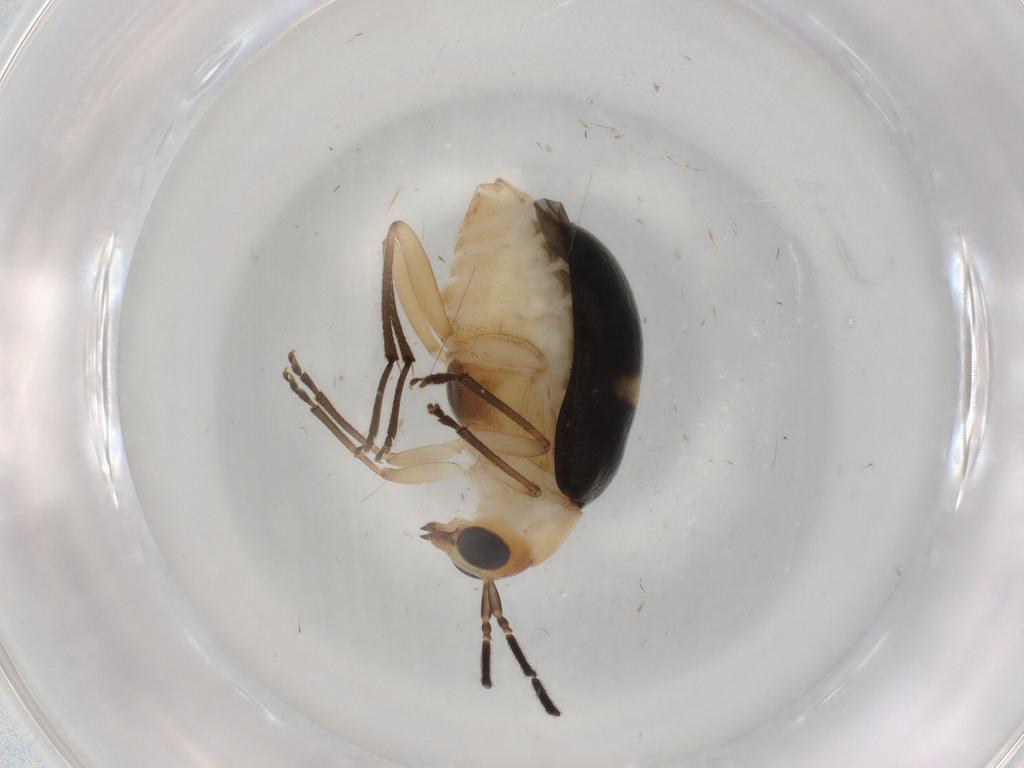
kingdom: Animalia
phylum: Arthropoda
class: Insecta
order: Coleoptera
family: Chrysomelidae
